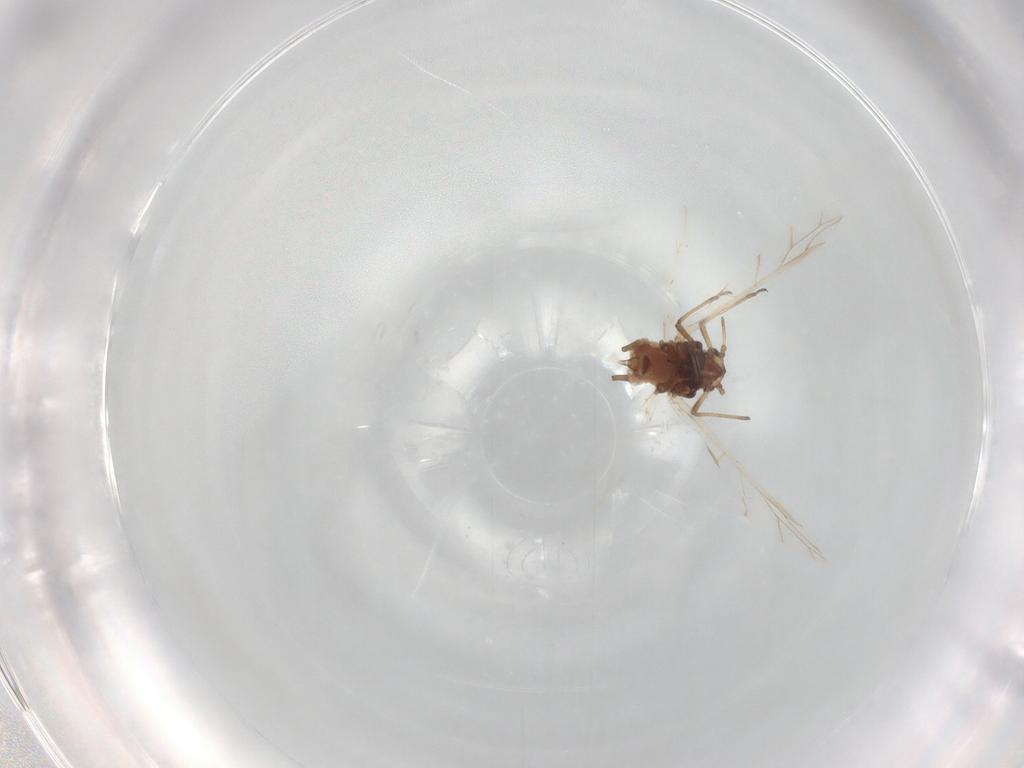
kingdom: Animalia
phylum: Arthropoda
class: Insecta
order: Hemiptera
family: Aphididae
